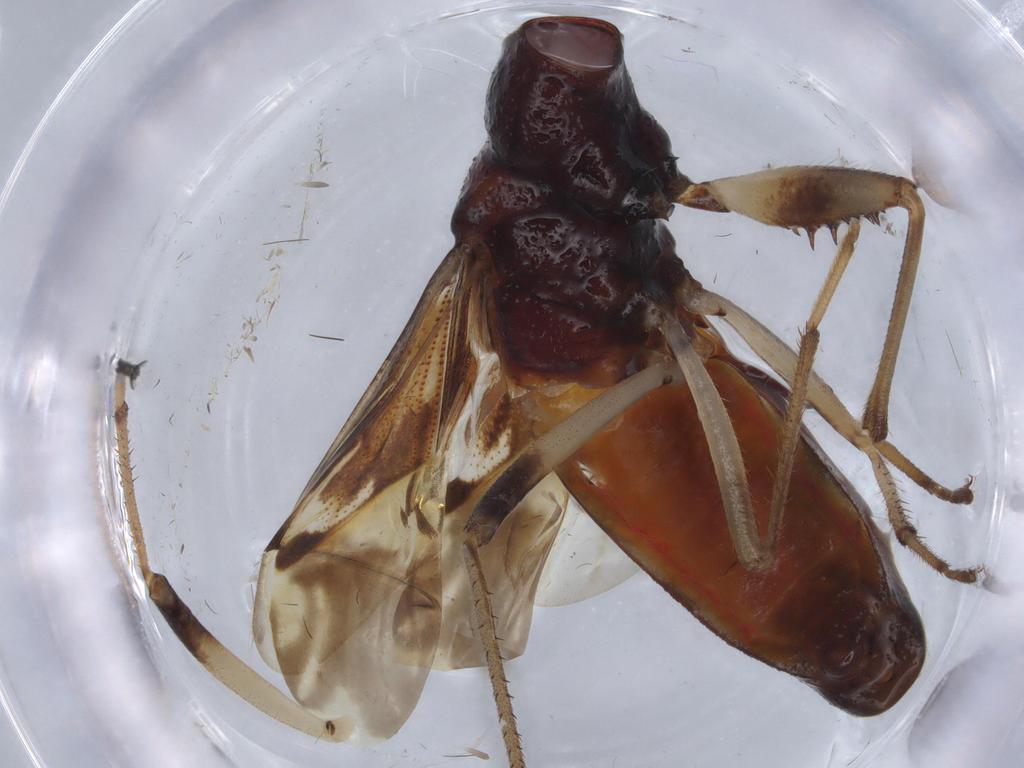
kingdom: Animalia
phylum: Arthropoda
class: Insecta
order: Hemiptera
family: Rhyparochromidae
